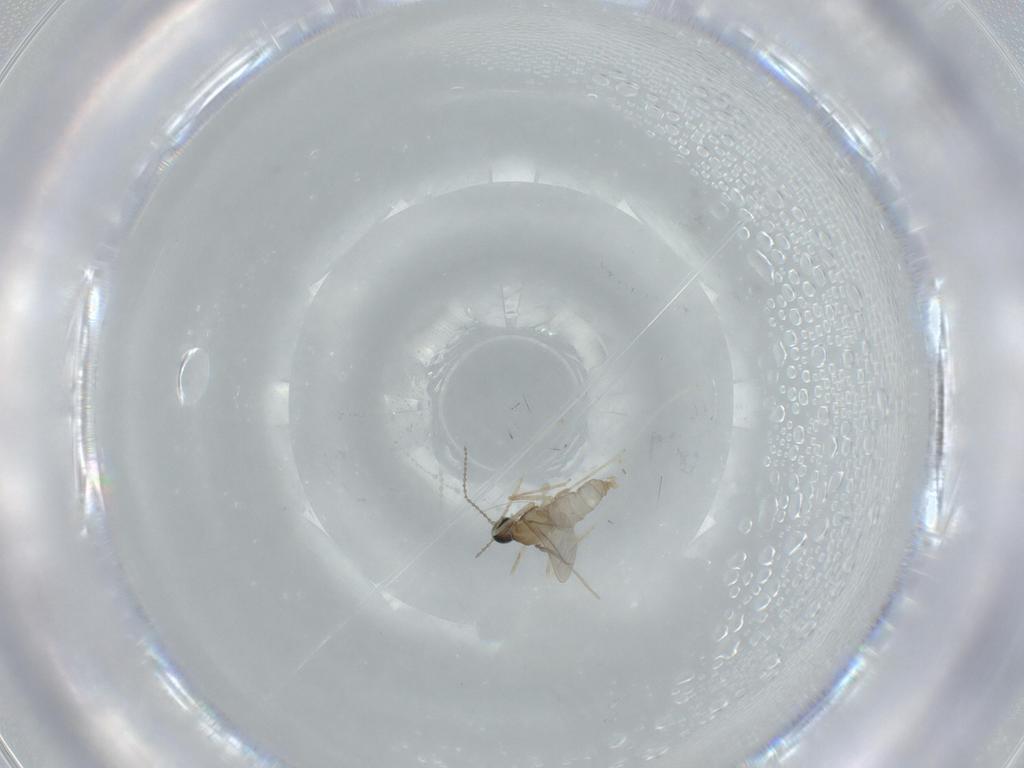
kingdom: Animalia
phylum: Arthropoda
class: Insecta
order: Diptera
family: Cecidomyiidae
